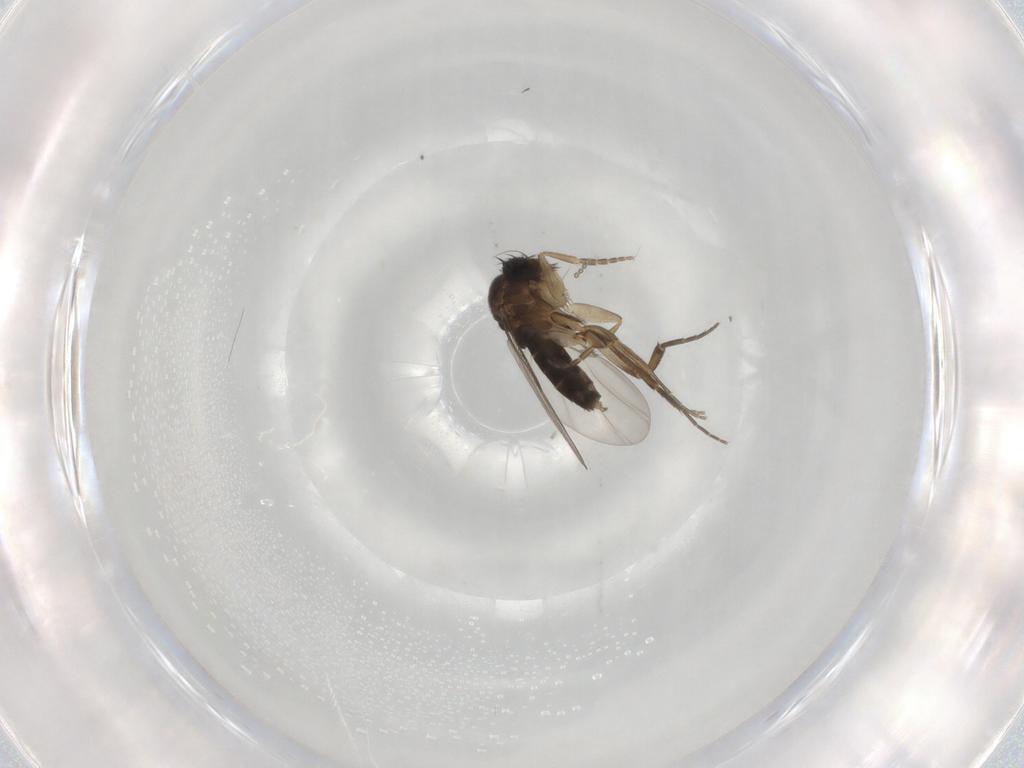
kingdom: Animalia
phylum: Arthropoda
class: Insecta
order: Diptera
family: Phoridae
